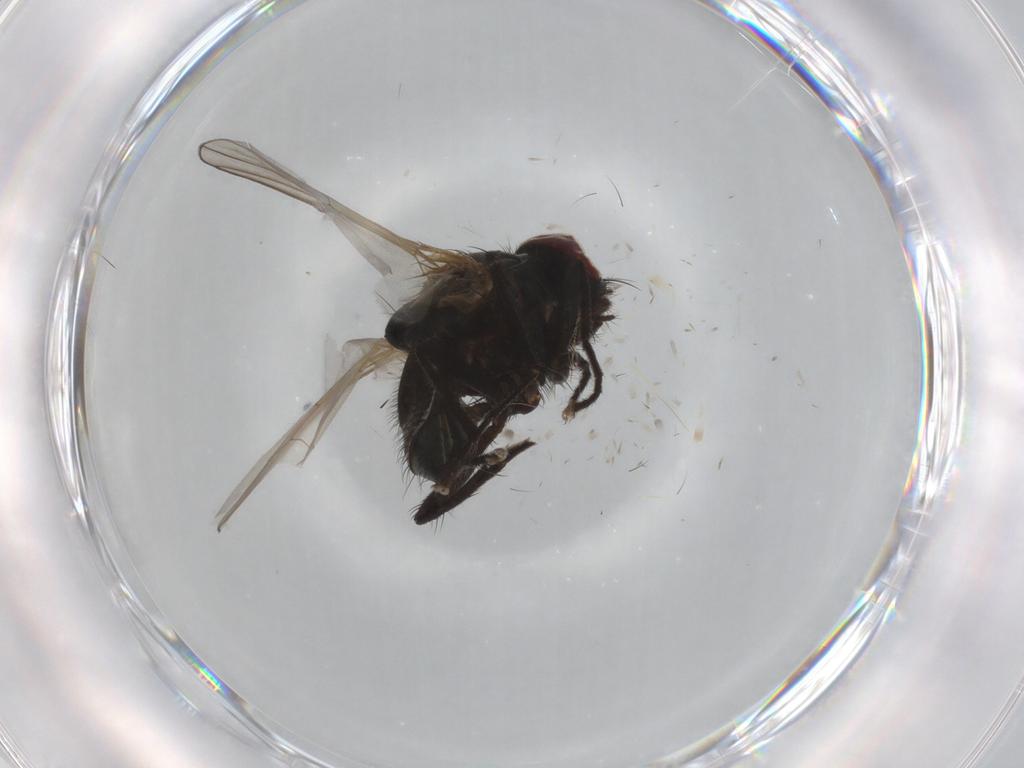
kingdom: Animalia
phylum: Arthropoda
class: Insecta
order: Diptera
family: Muscidae
